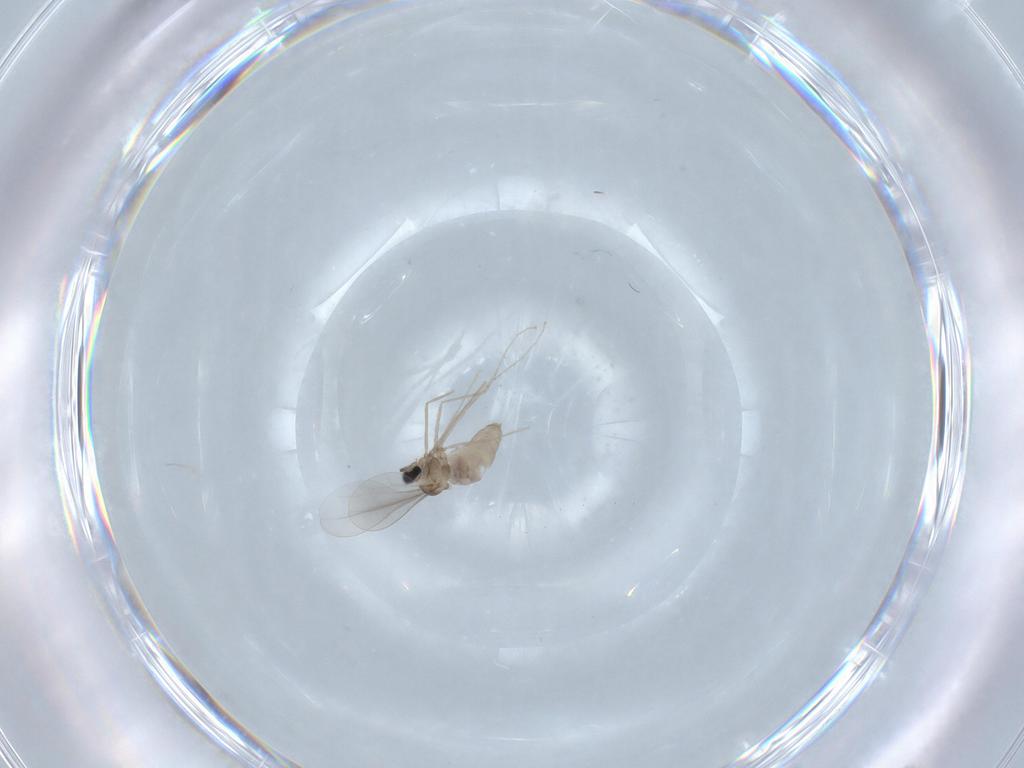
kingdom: Animalia
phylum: Arthropoda
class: Insecta
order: Diptera
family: Cecidomyiidae
